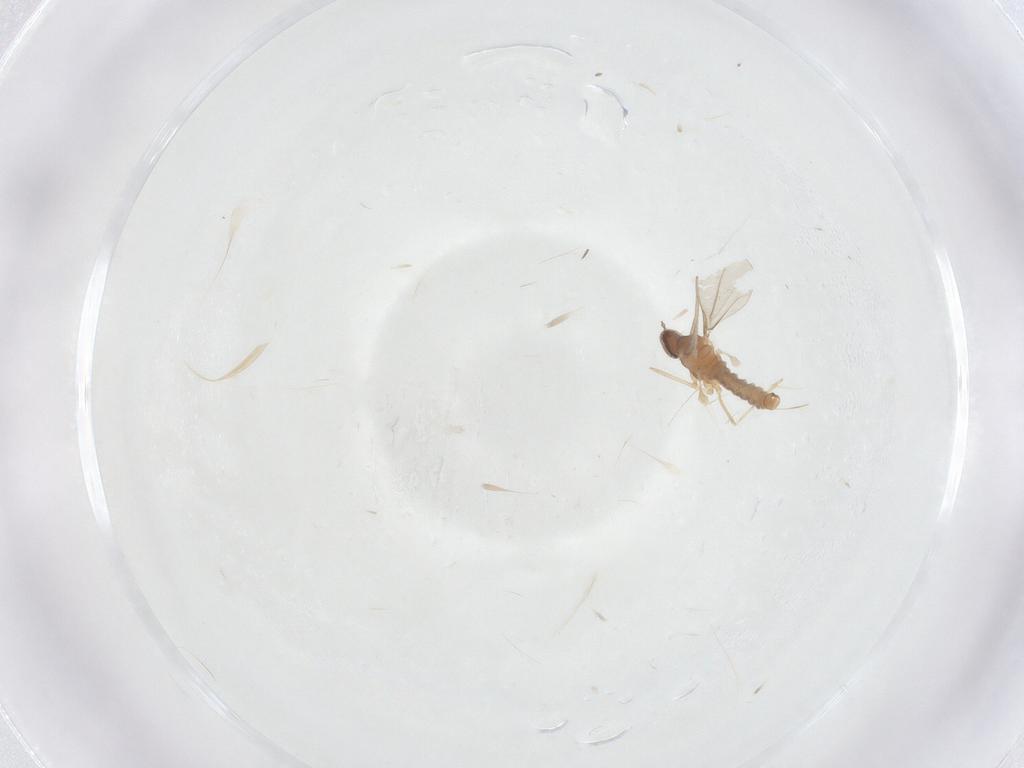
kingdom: Animalia
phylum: Arthropoda
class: Insecta
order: Diptera
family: Cecidomyiidae
